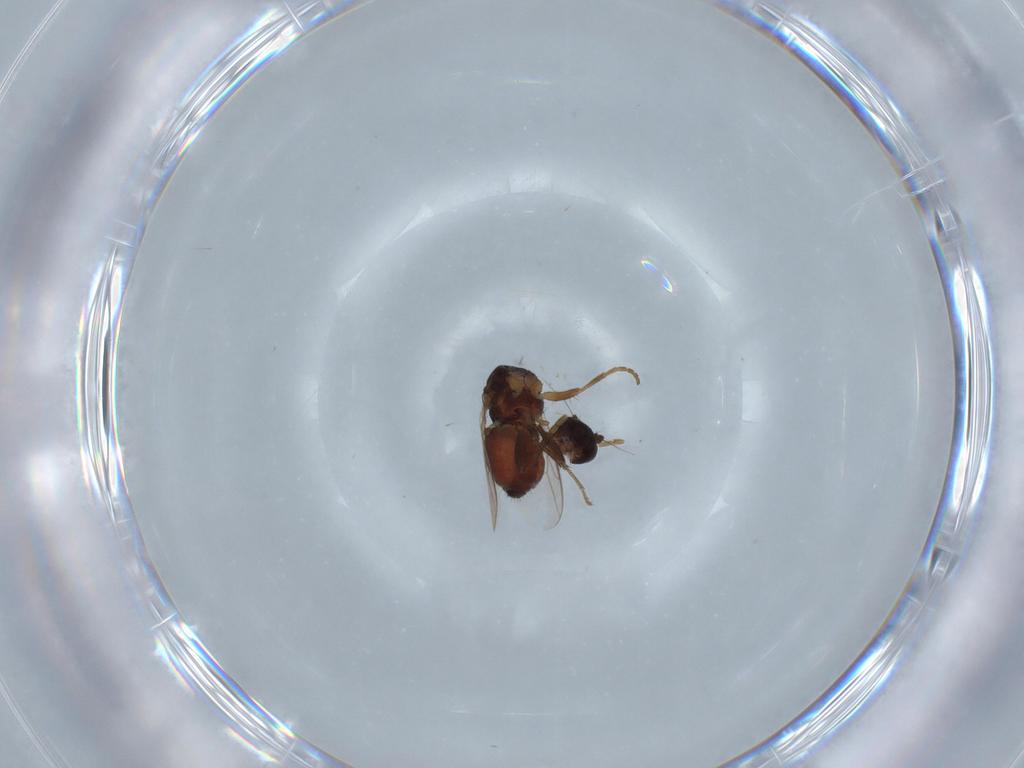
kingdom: Animalia
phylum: Arthropoda
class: Insecta
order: Diptera
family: Sphaeroceridae
